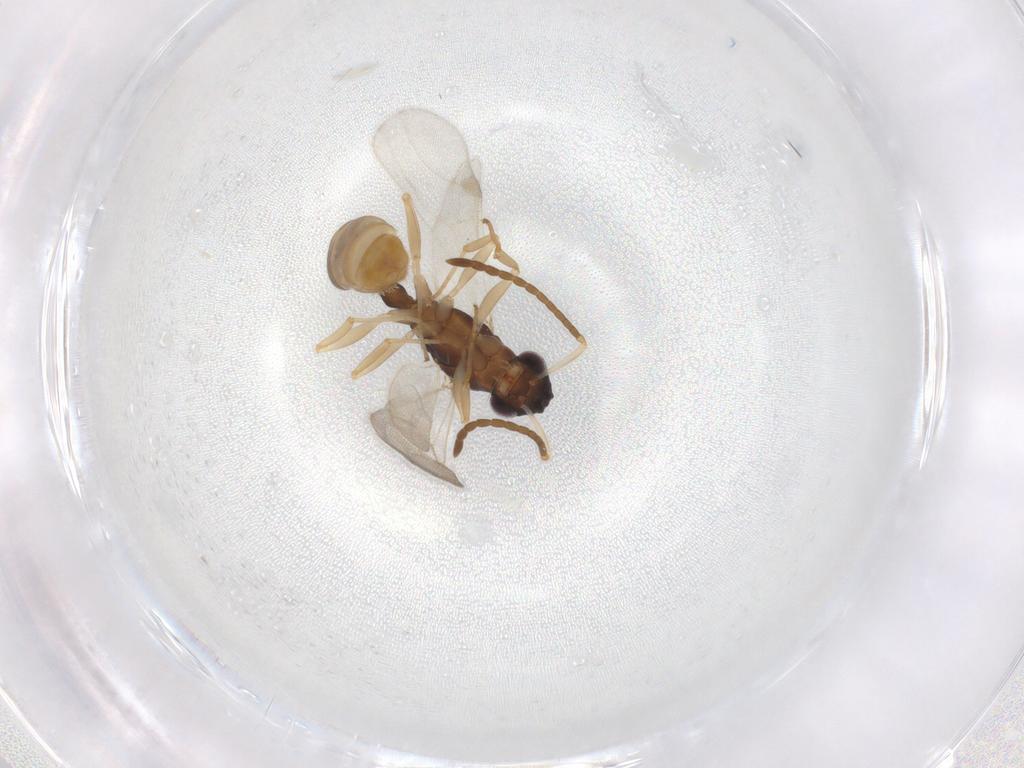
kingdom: Animalia
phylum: Arthropoda
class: Insecta
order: Hymenoptera
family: Formicidae
